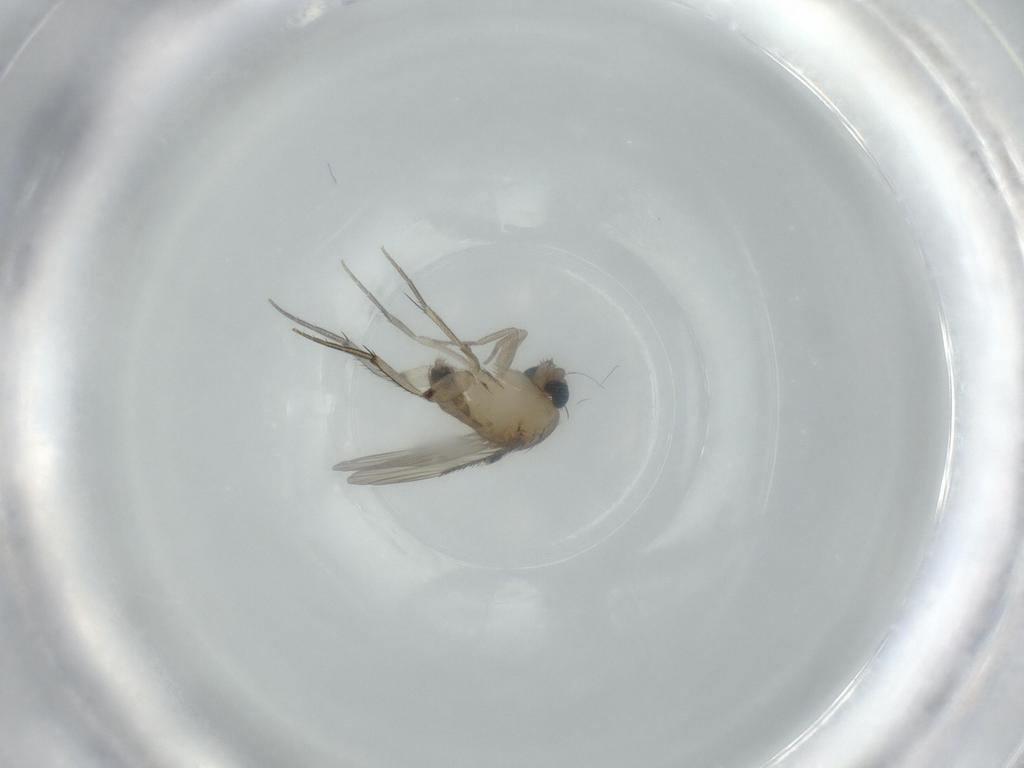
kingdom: Animalia
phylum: Arthropoda
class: Insecta
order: Diptera
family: Phoridae
